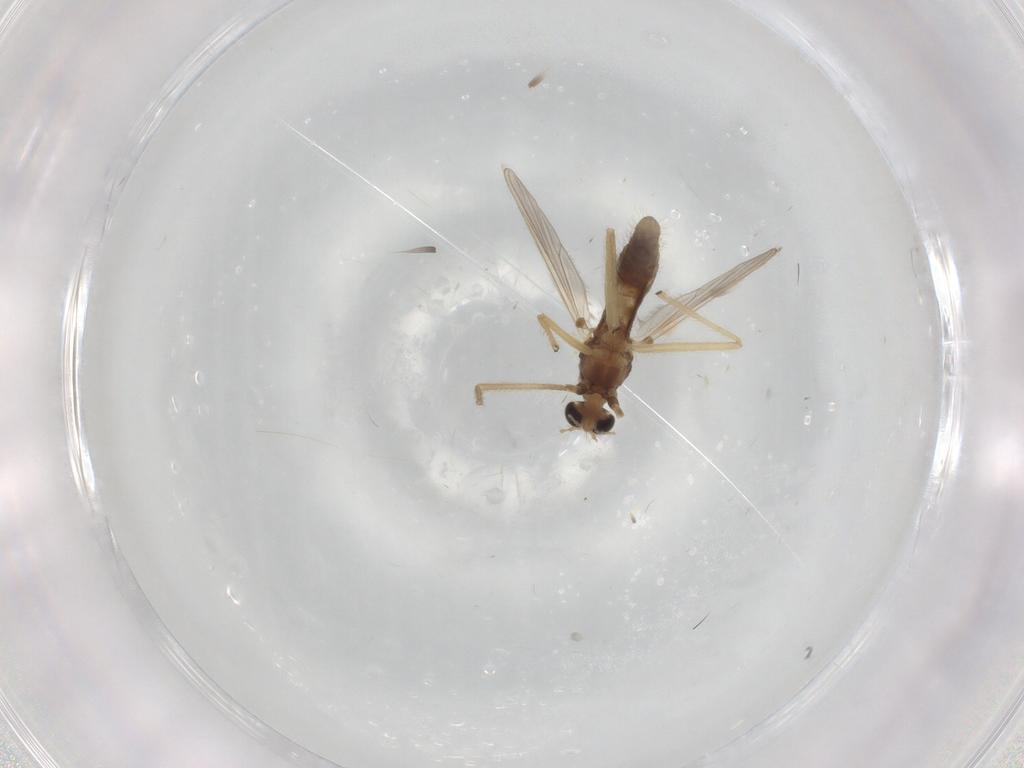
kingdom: Animalia
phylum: Arthropoda
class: Insecta
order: Diptera
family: Chironomidae
